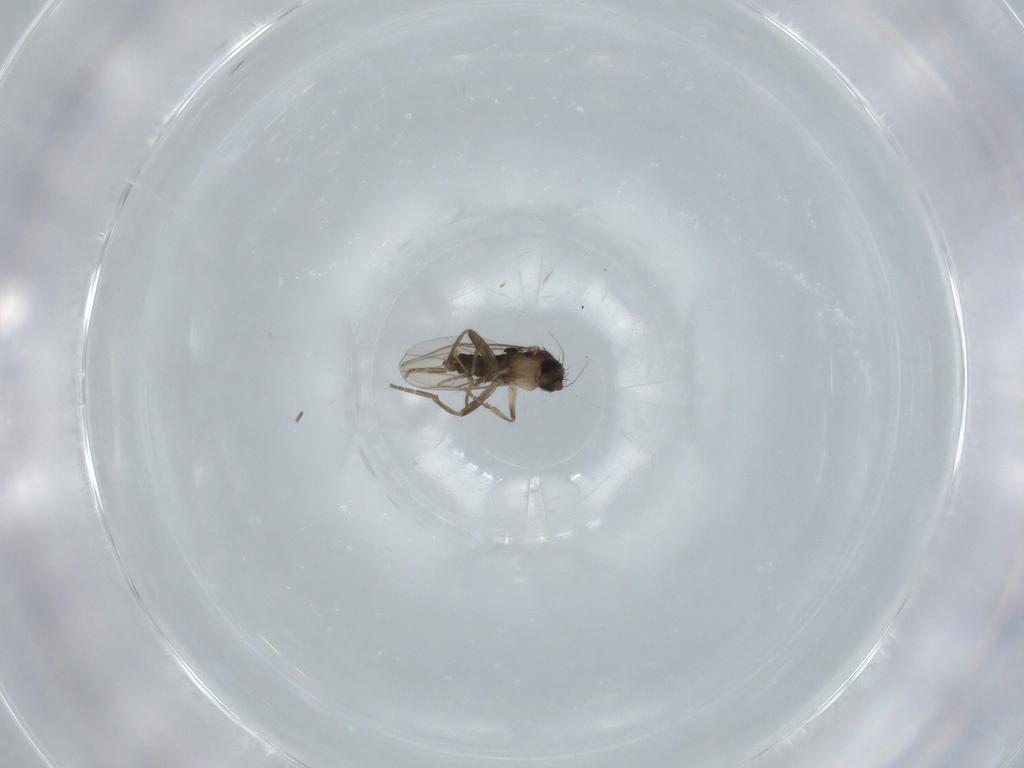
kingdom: Animalia
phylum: Arthropoda
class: Insecta
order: Diptera
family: Phoridae
